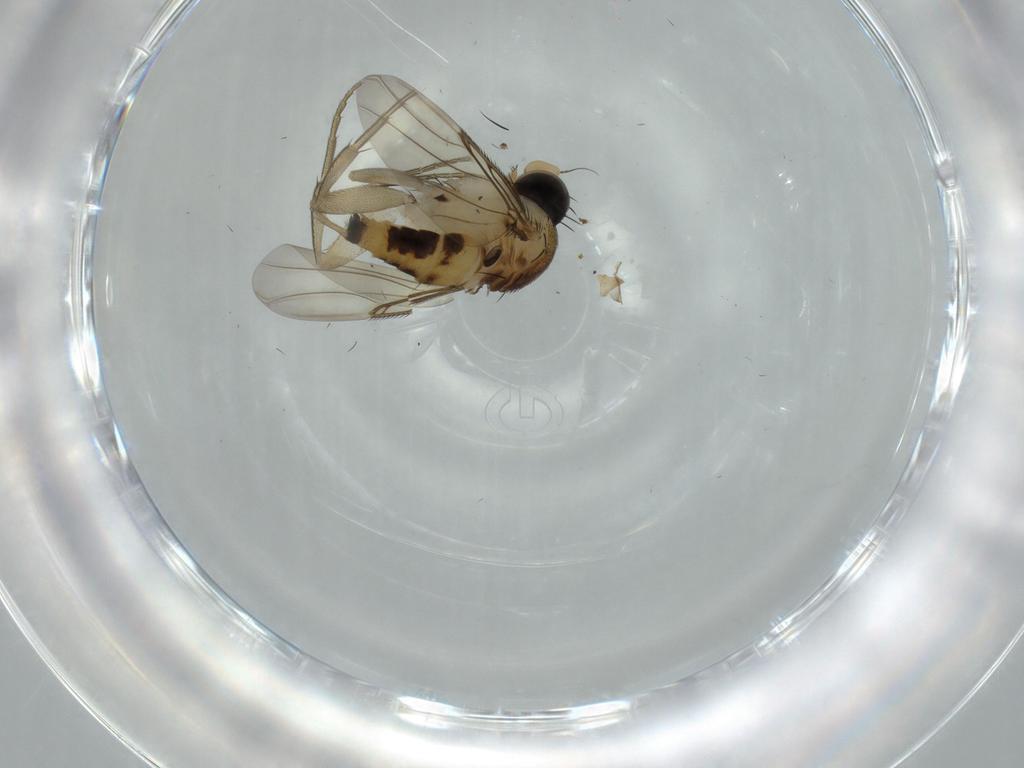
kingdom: Animalia
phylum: Arthropoda
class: Insecta
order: Diptera
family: Phoridae
